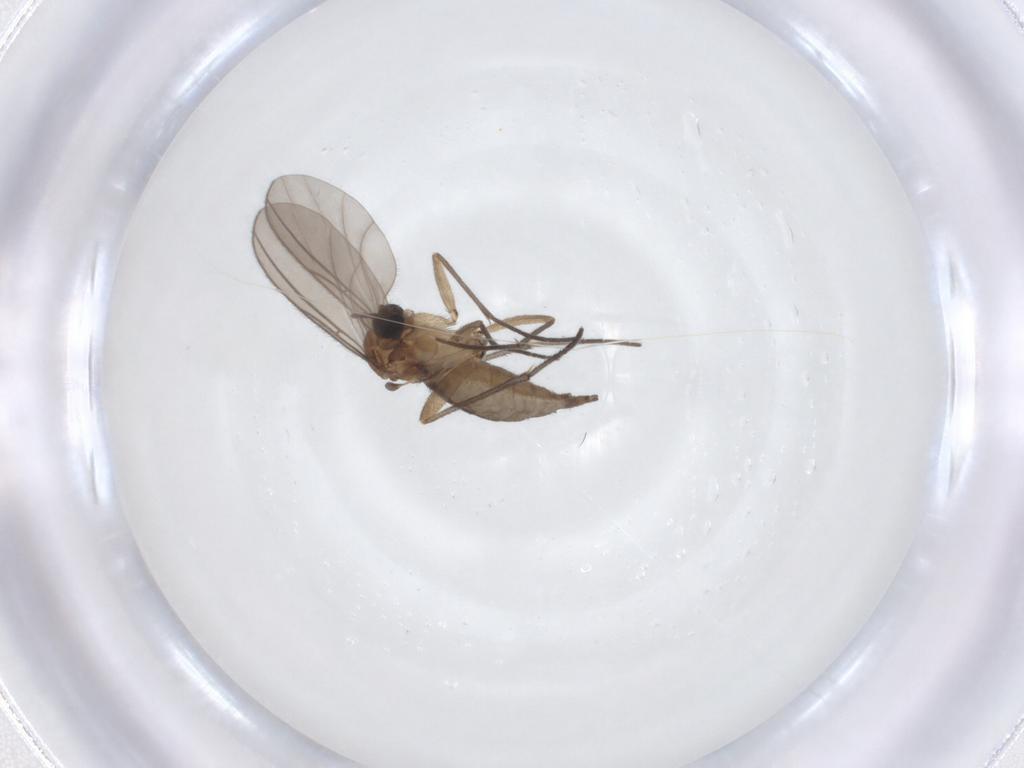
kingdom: Animalia
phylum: Arthropoda
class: Insecta
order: Diptera
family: Sciaridae
